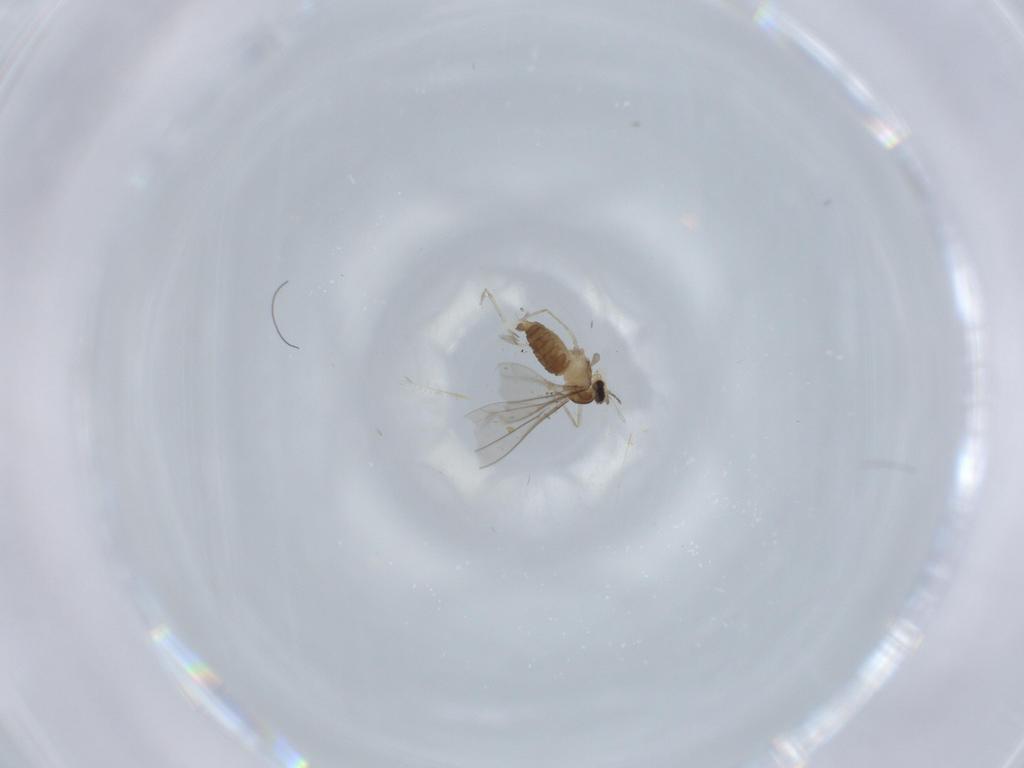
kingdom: Animalia
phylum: Arthropoda
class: Insecta
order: Diptera
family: Cecidomyiidae
